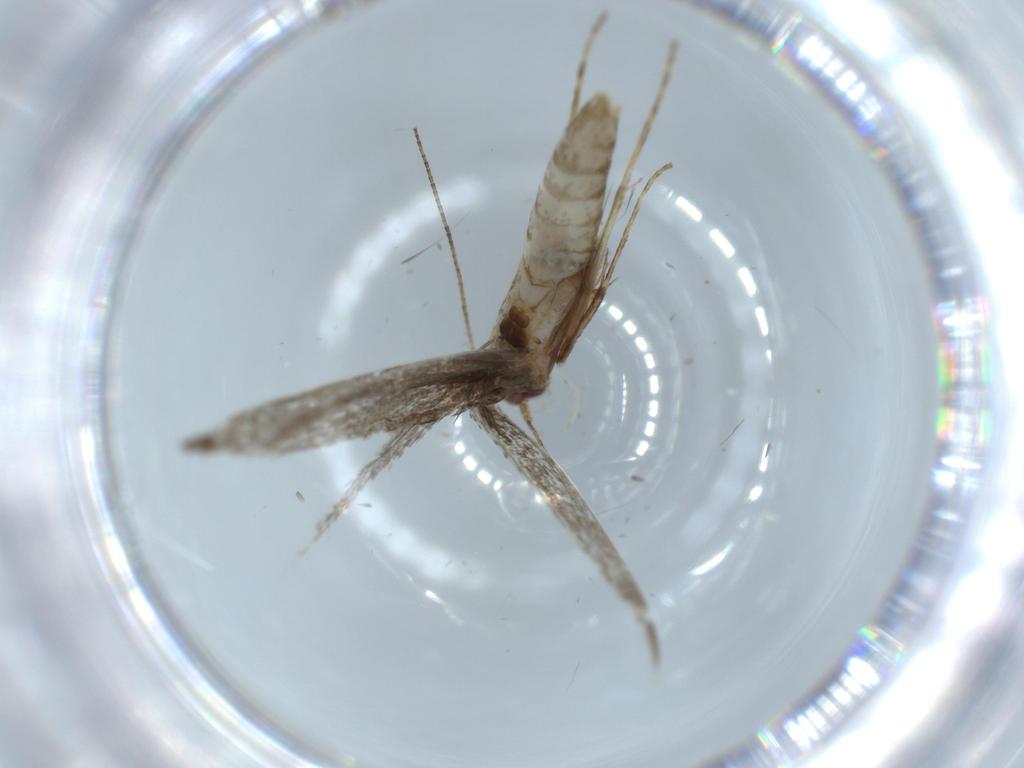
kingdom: Animalia
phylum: Arthropoda
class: Insecta
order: Lepidoptera
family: Gracillariidae
